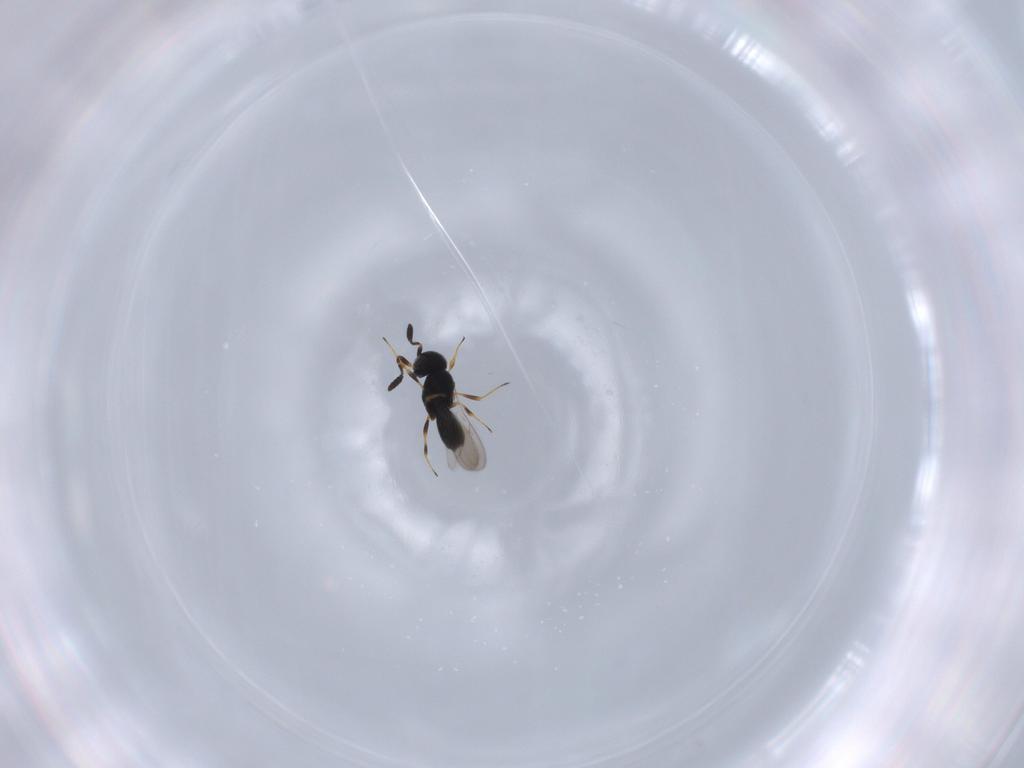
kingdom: Animalia
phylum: Arthropoda
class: Insecta
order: Hymenoptera
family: Scelionidae
